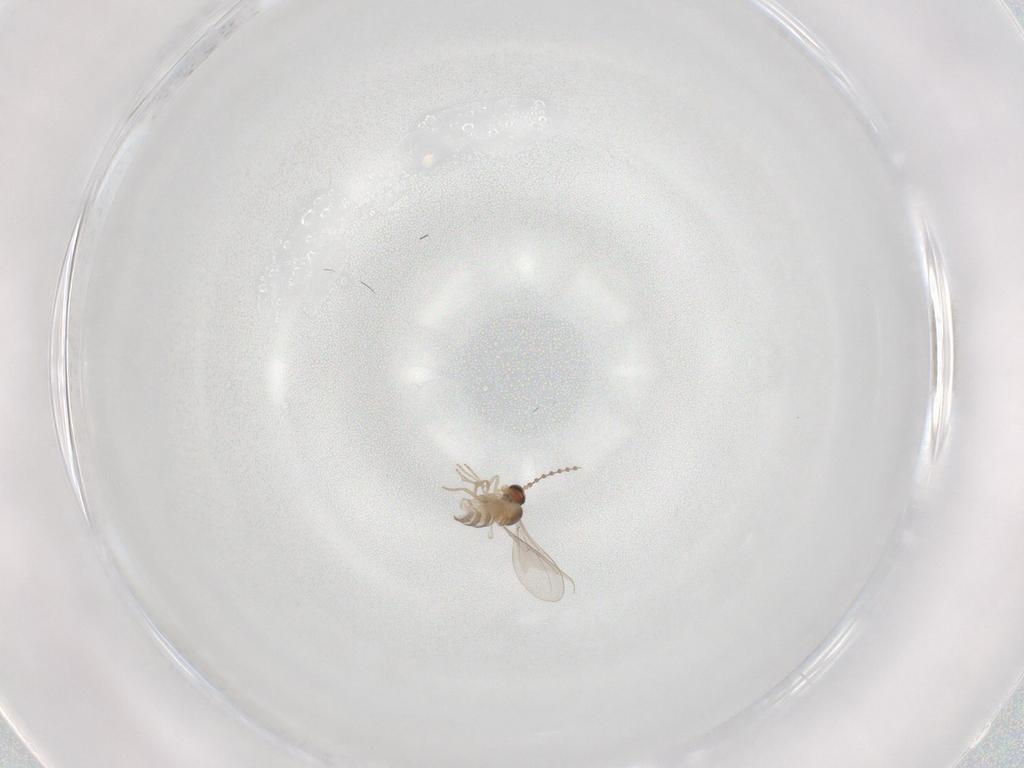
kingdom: Animalia
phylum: Arthropoda
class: Insecta
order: Diptera
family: Cecidomyiidae
